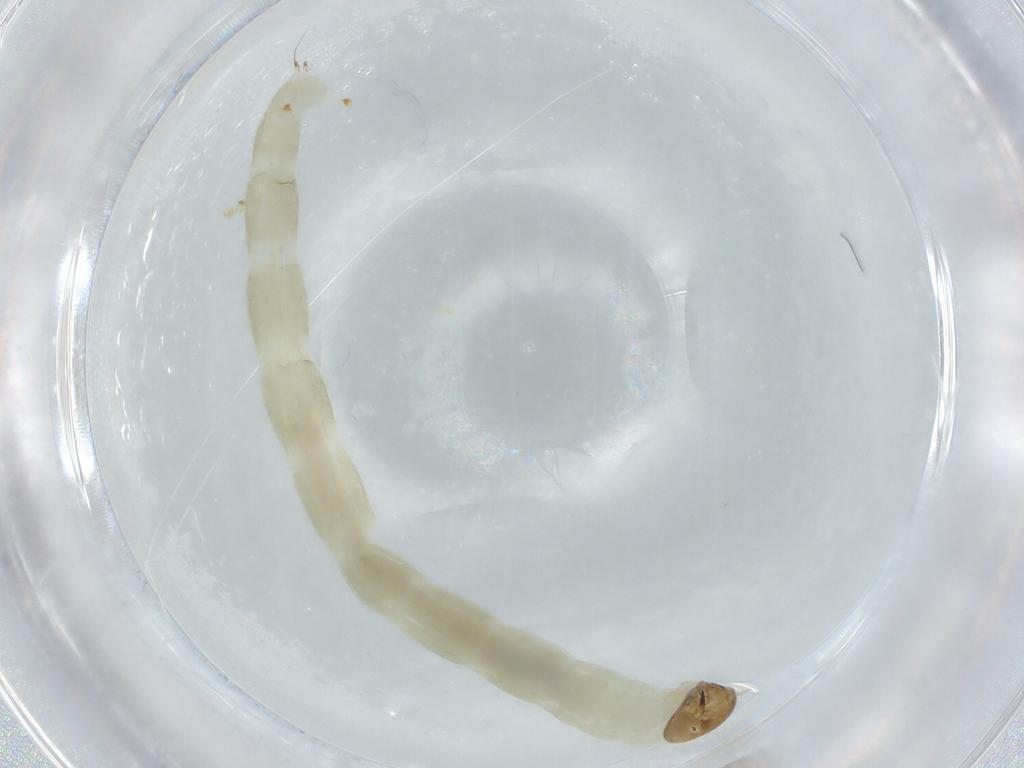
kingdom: Animalia
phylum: Arthropoda
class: Insecta
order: Diptera
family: Chironomidae
